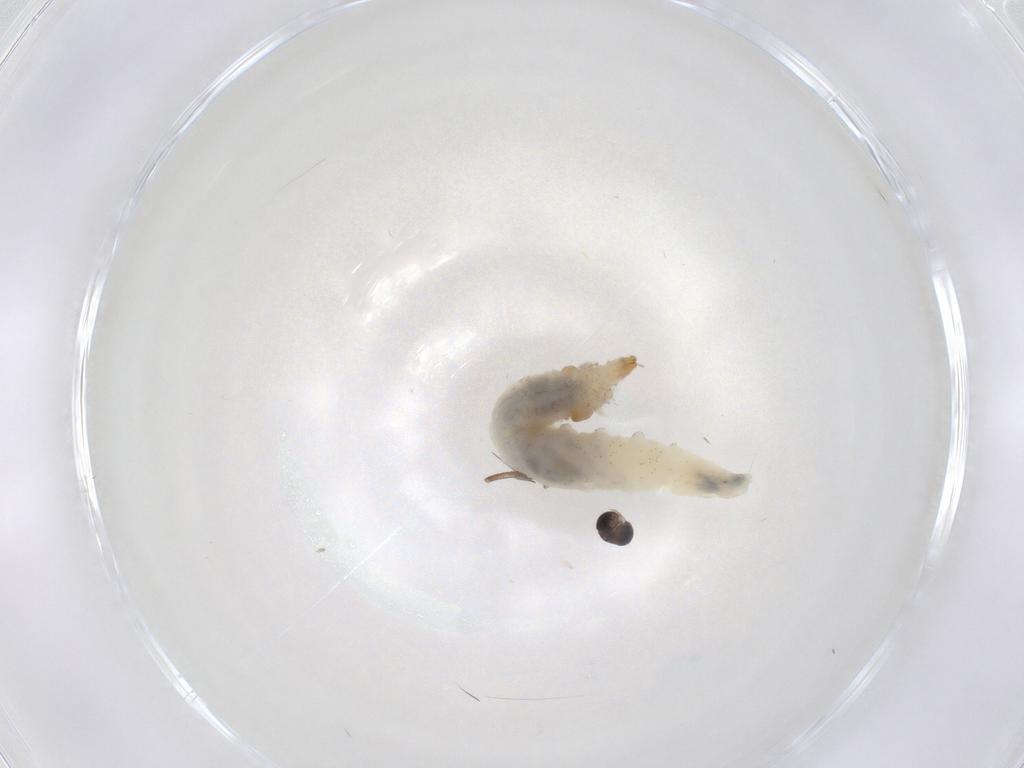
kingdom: Animalia
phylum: Arthropoda
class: Insecta
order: Diptera
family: Drosophilidae
